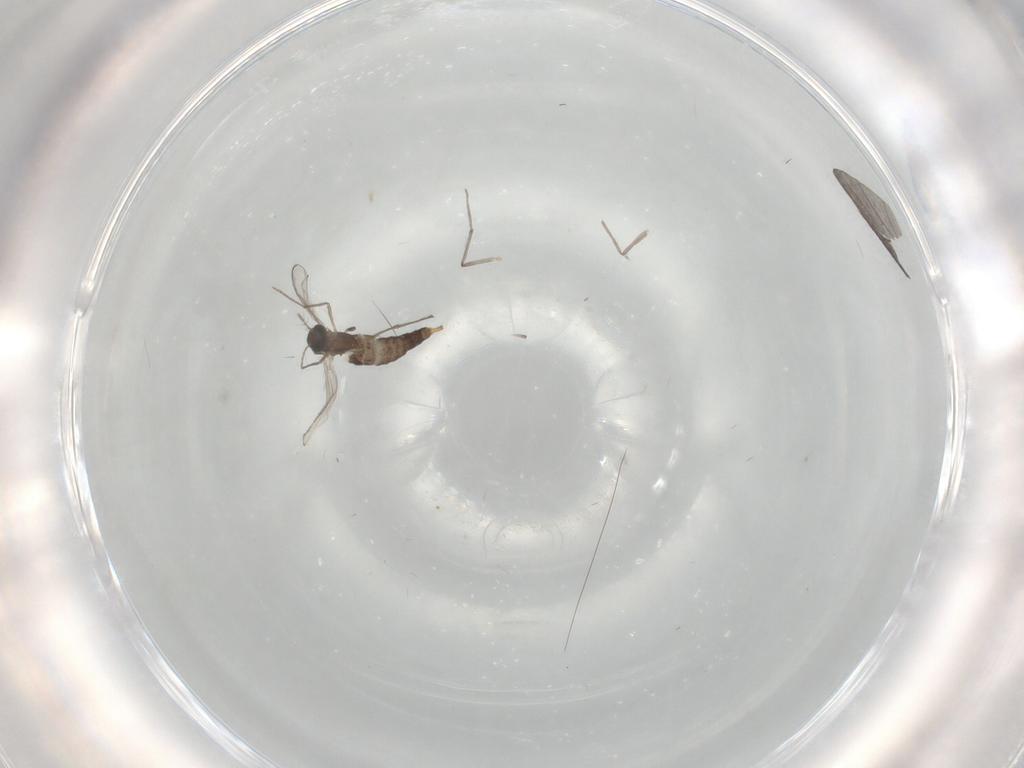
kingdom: Animalia
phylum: Arthropoda
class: Insecta
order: Diptera
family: Chironomidae
